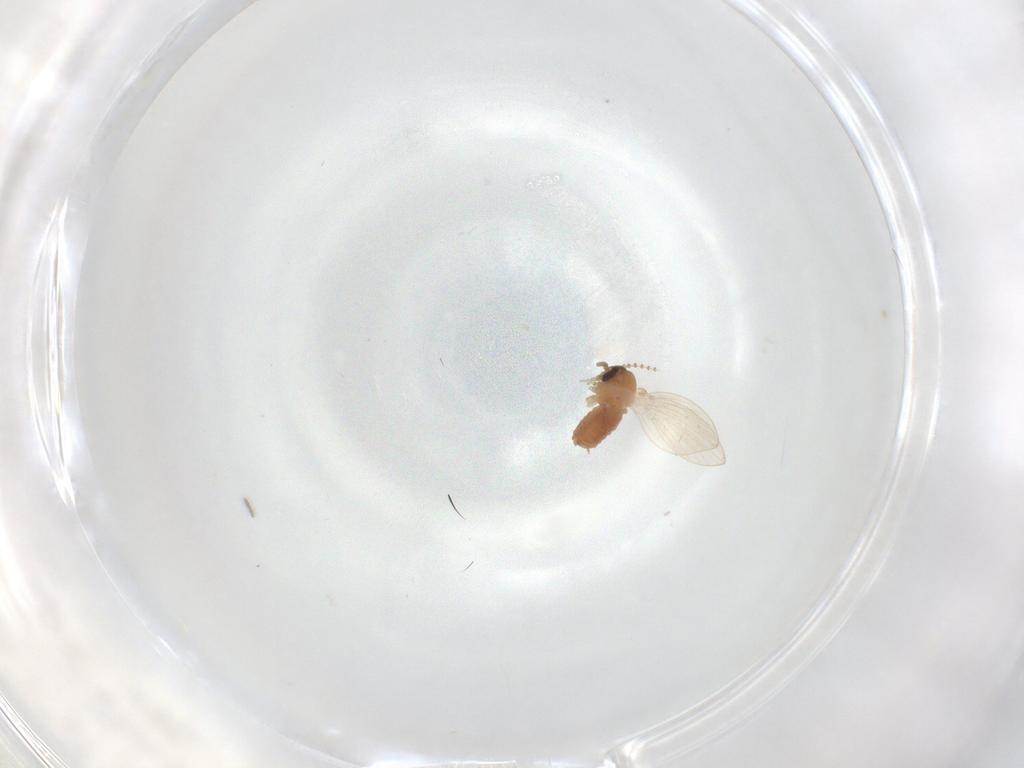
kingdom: Animalia
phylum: Arthropoda
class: Insecta
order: Diptera
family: Psychodidae
